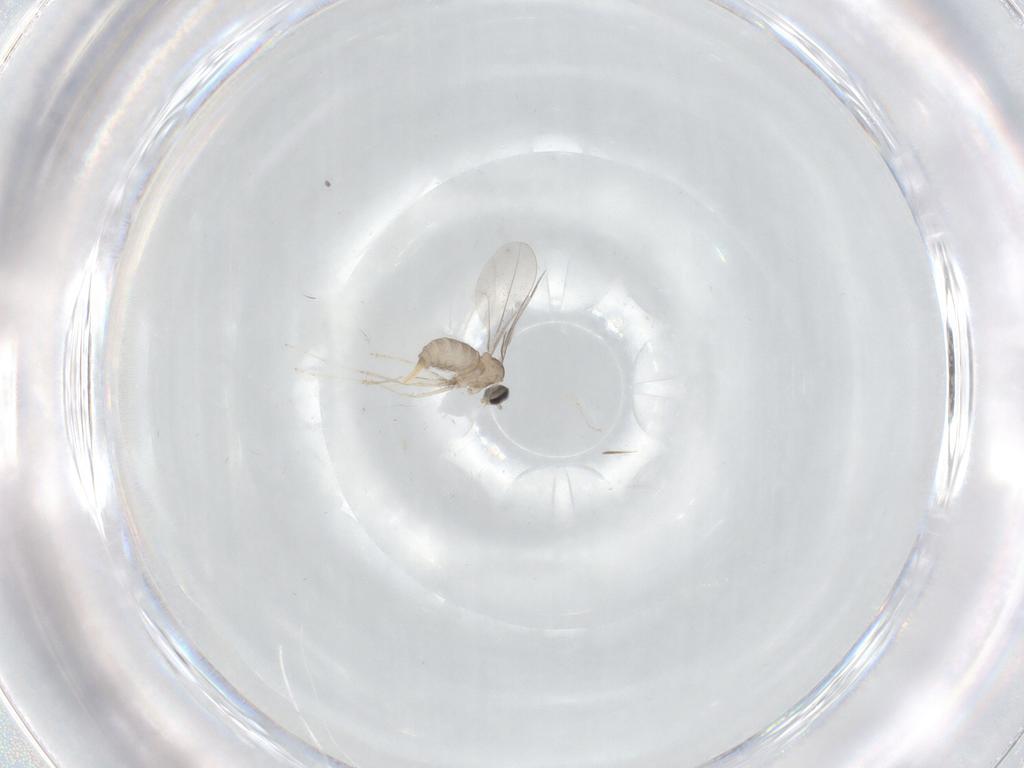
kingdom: Animalia
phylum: Arthropoda
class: Insecta
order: Diptera
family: Cecidomyiidae
